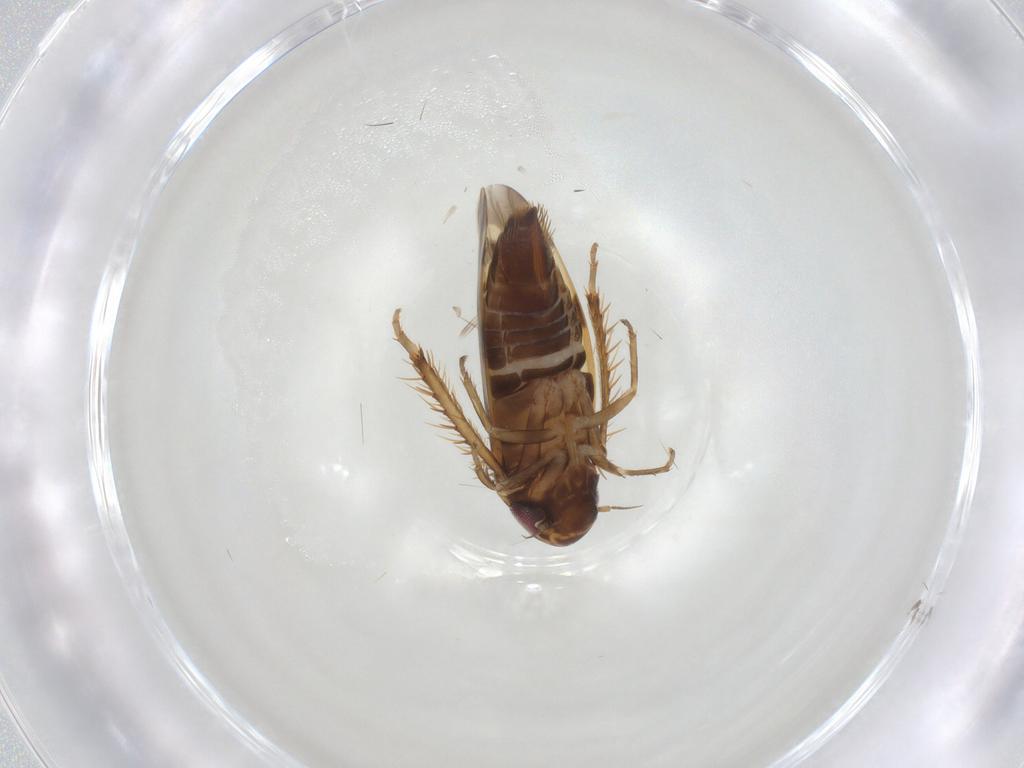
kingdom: Animalia
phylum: Arthropoda
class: Insecta
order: Hemiptera
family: Cicadellidae
